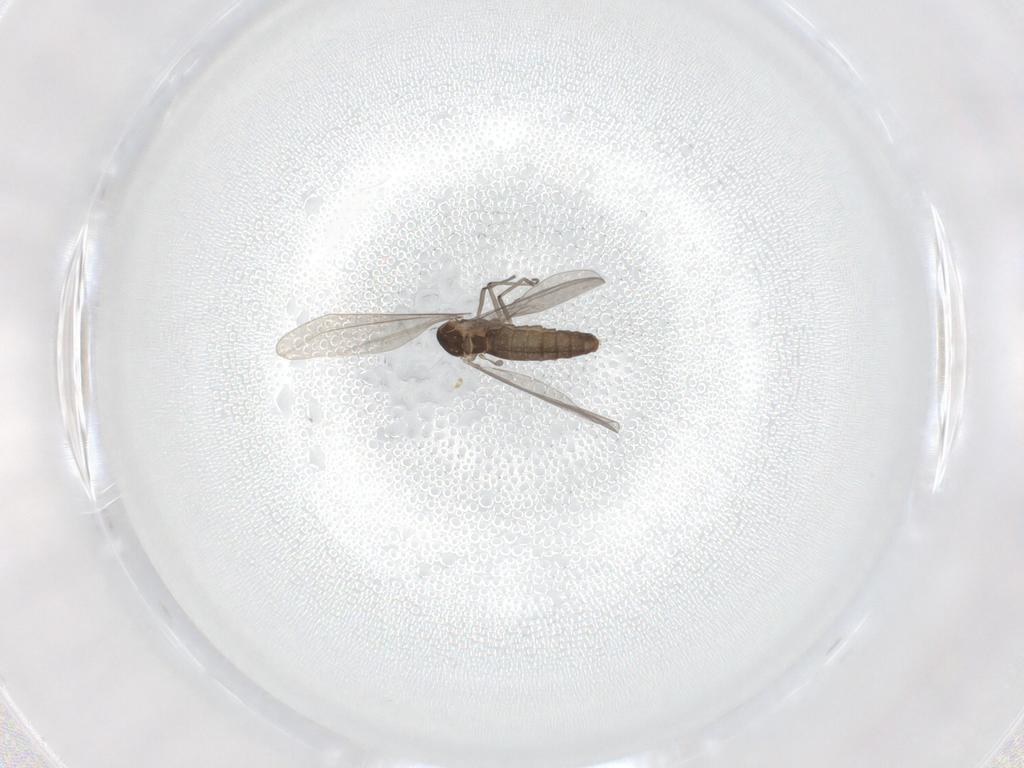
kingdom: Animalia
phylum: Arthropoda
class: Insecta
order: Diptera
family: Chironomidae
